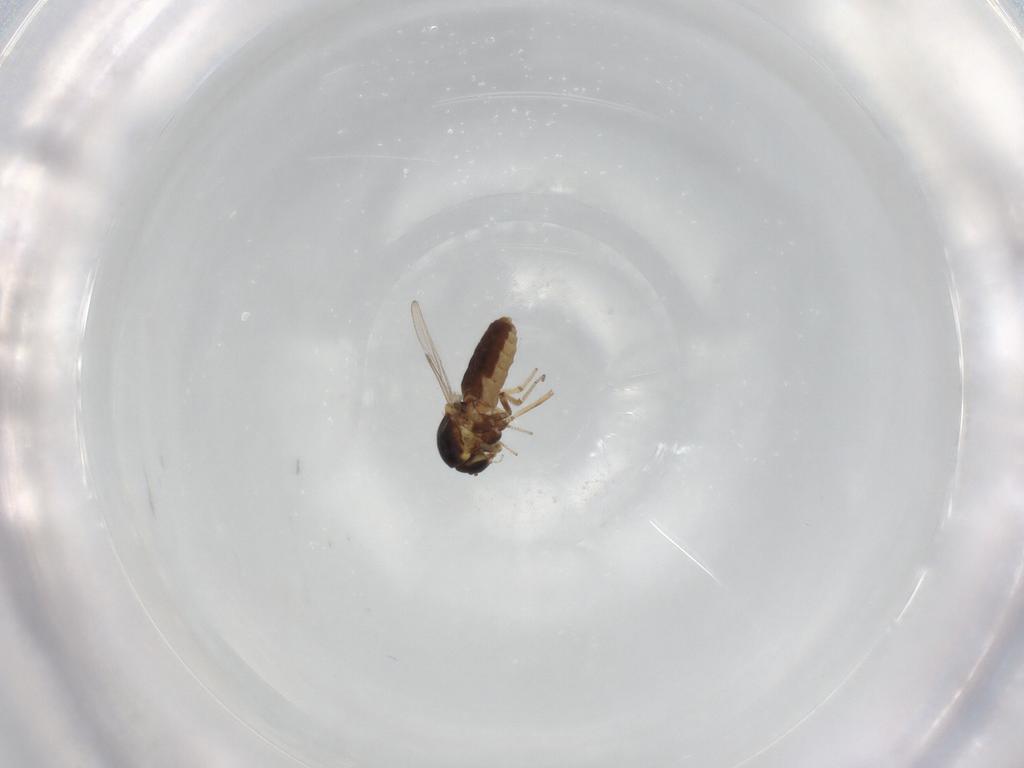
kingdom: Animalia
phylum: Arthropoda
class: Insecta
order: Diptera
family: Ceratopogonidae
